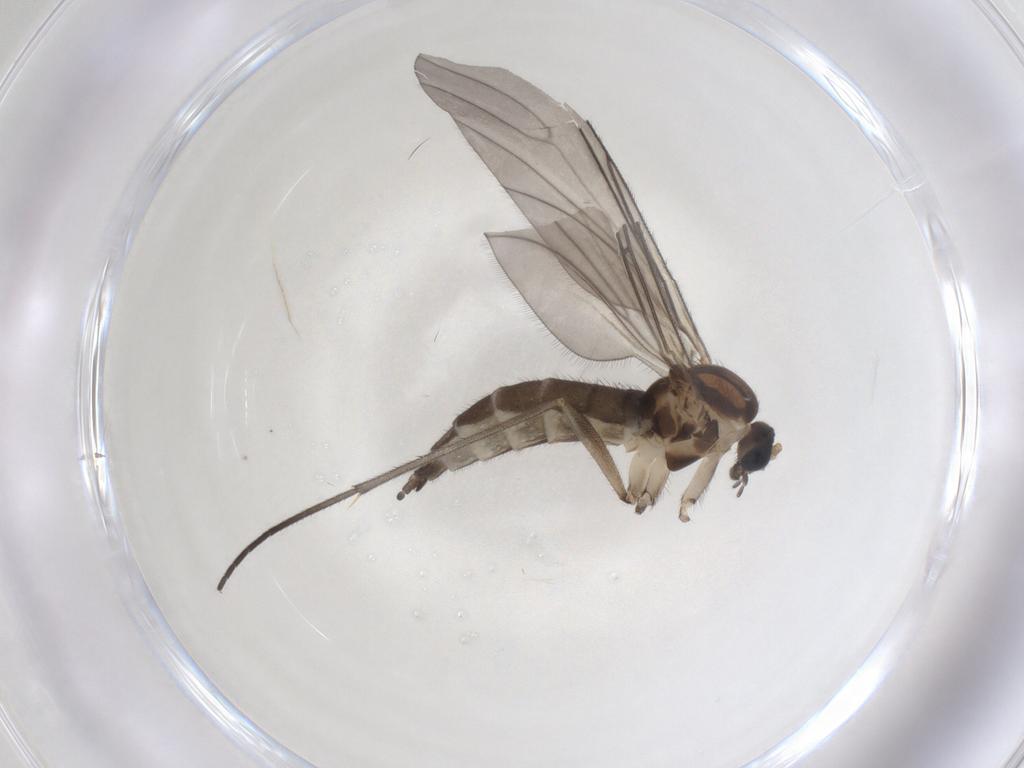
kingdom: Animalia
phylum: Arthropoda
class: Insecta
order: Diptera
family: Sciaridae
